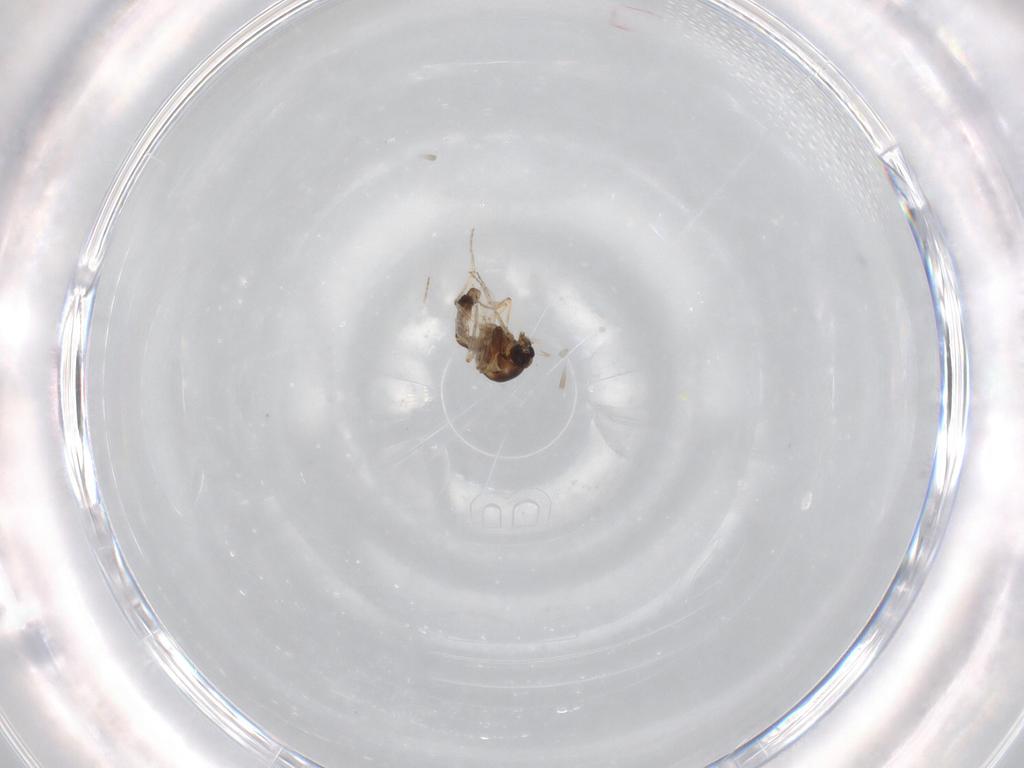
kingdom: Animalia
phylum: Arthropoda
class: Insecta
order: Diptera
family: Ceratopogonidae
